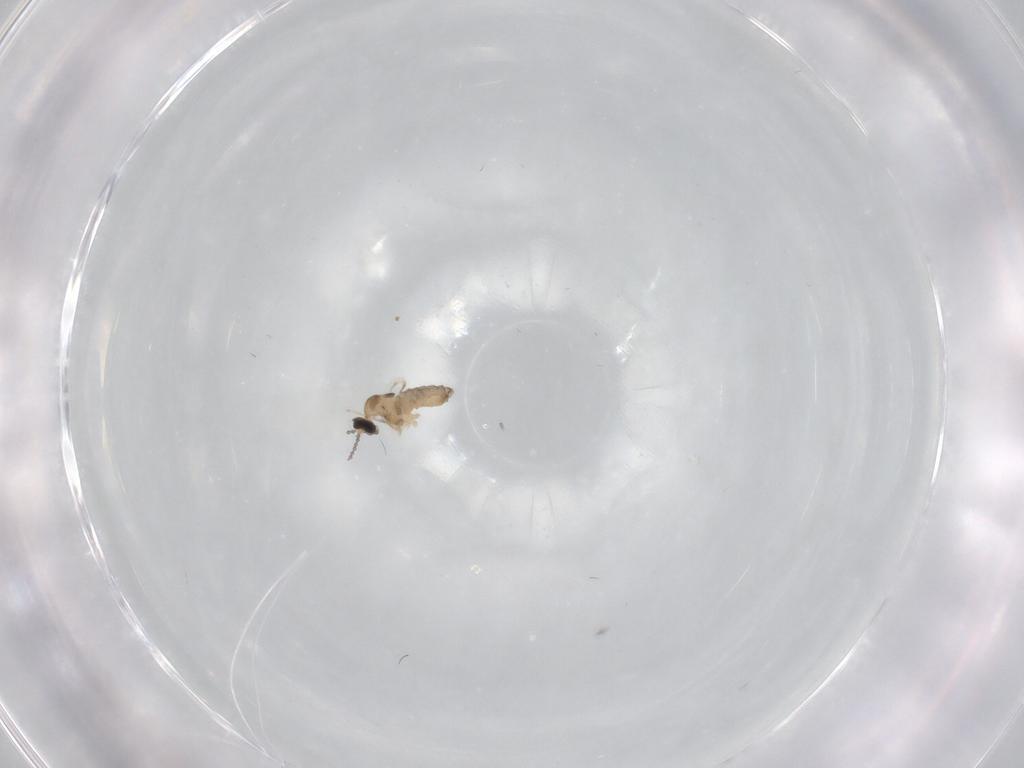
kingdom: Animalia
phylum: Arthropoda
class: Insecta
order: Diptera
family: Cecidomyiidae
